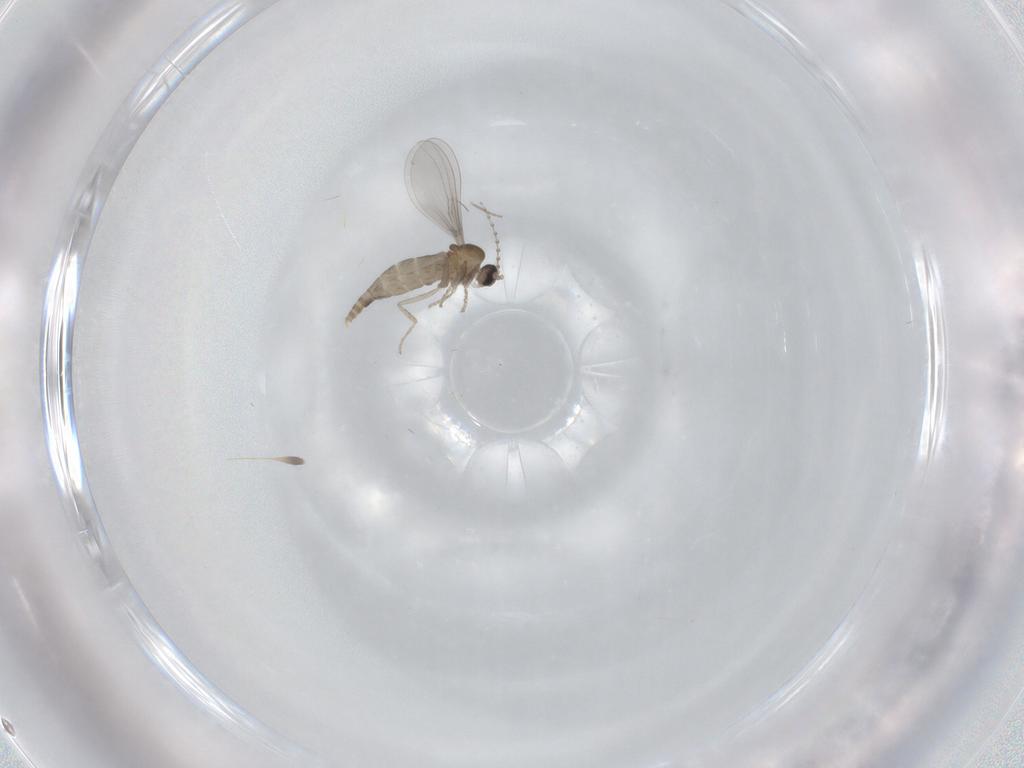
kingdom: Animalia
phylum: Arthropoda
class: Insecta
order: Diptera
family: Cecidomyiidae
